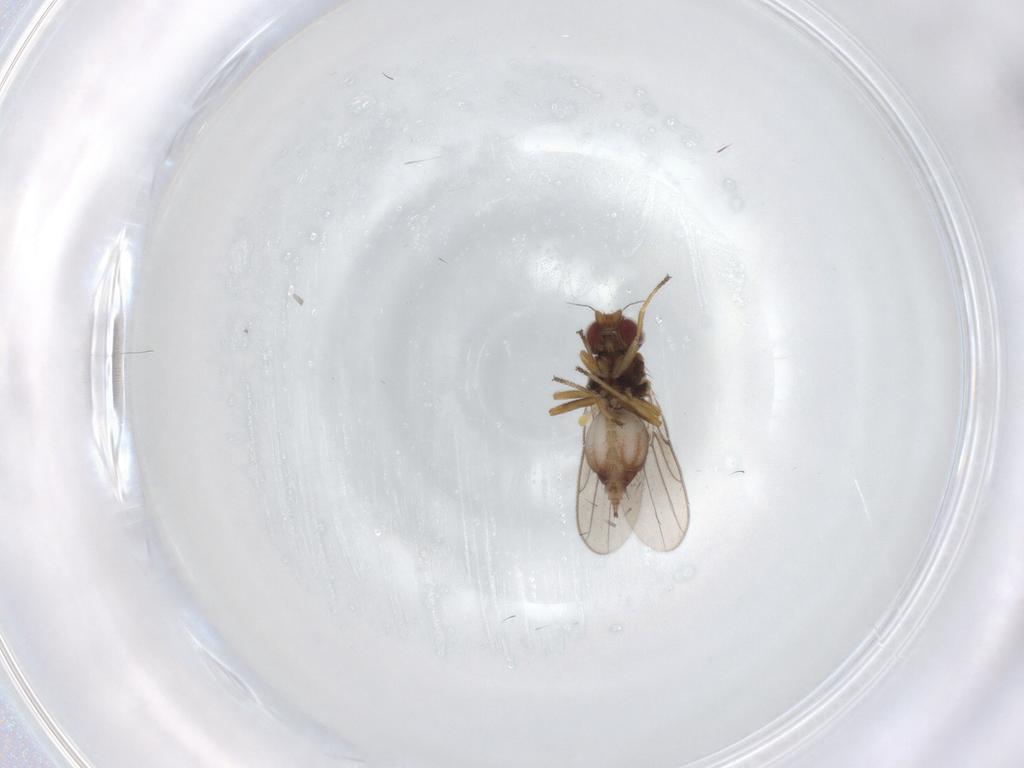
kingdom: Animalia
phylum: Arthropoda
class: Insecta
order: Diptera
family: Chloropidae
